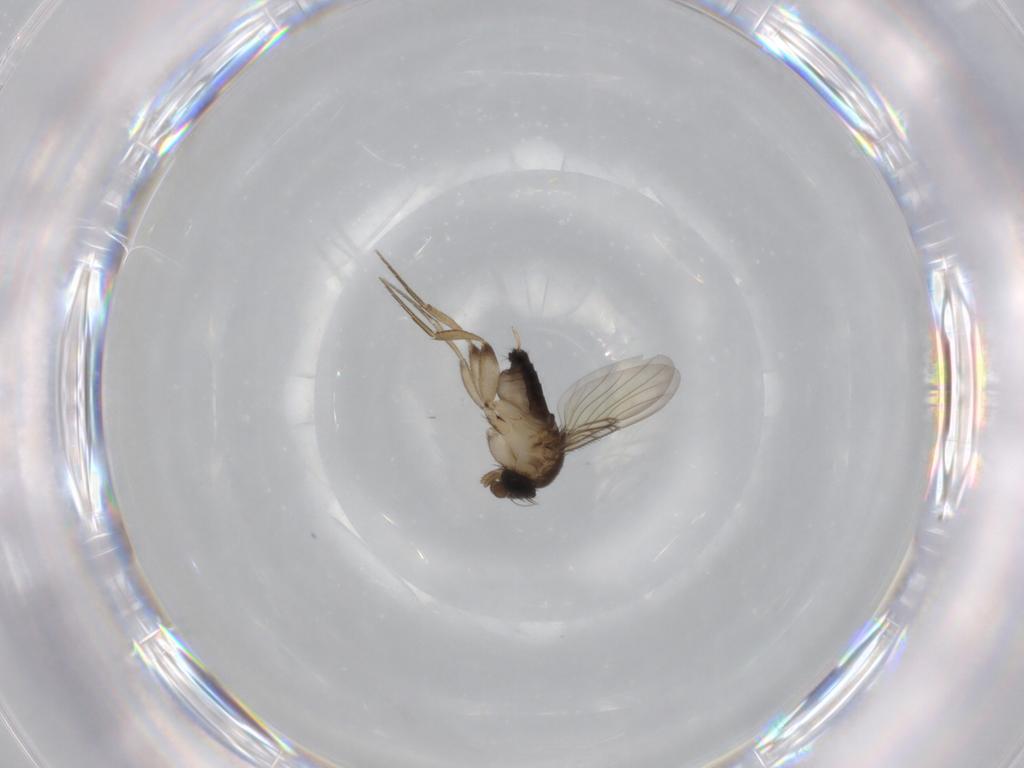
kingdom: Animalia
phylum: Arthropoda
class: Insecta
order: Diptera
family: Phoridae
